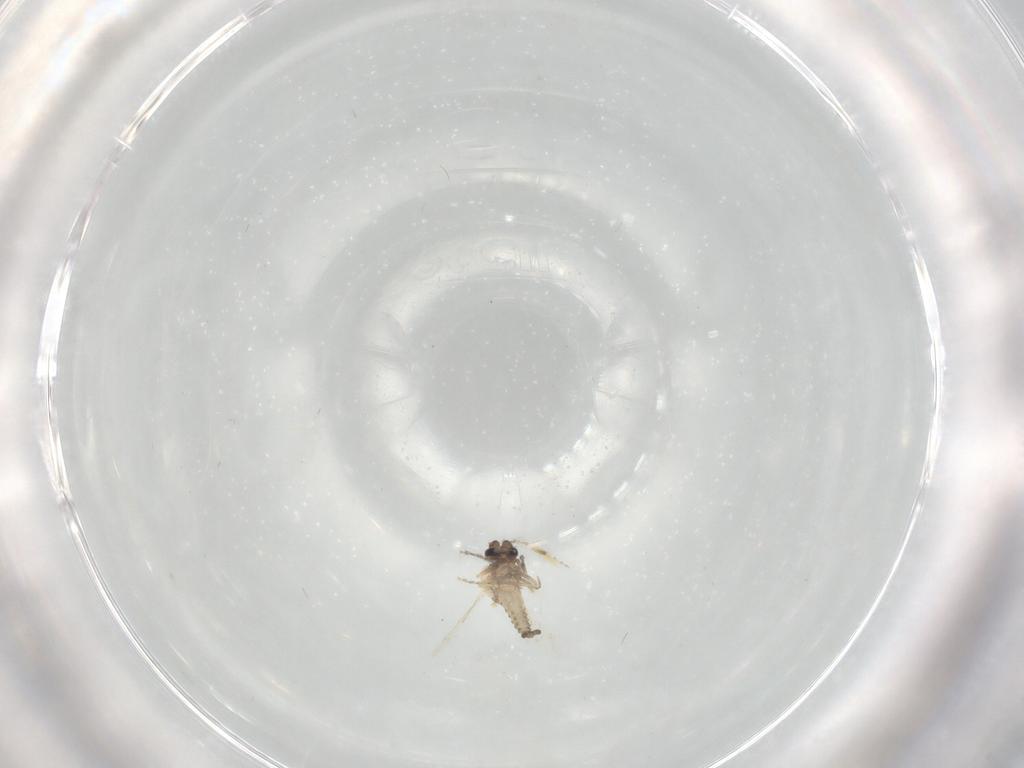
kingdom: Animalia
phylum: Arthropoda
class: Insecta
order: Diptera
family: Ceratopogonidae
